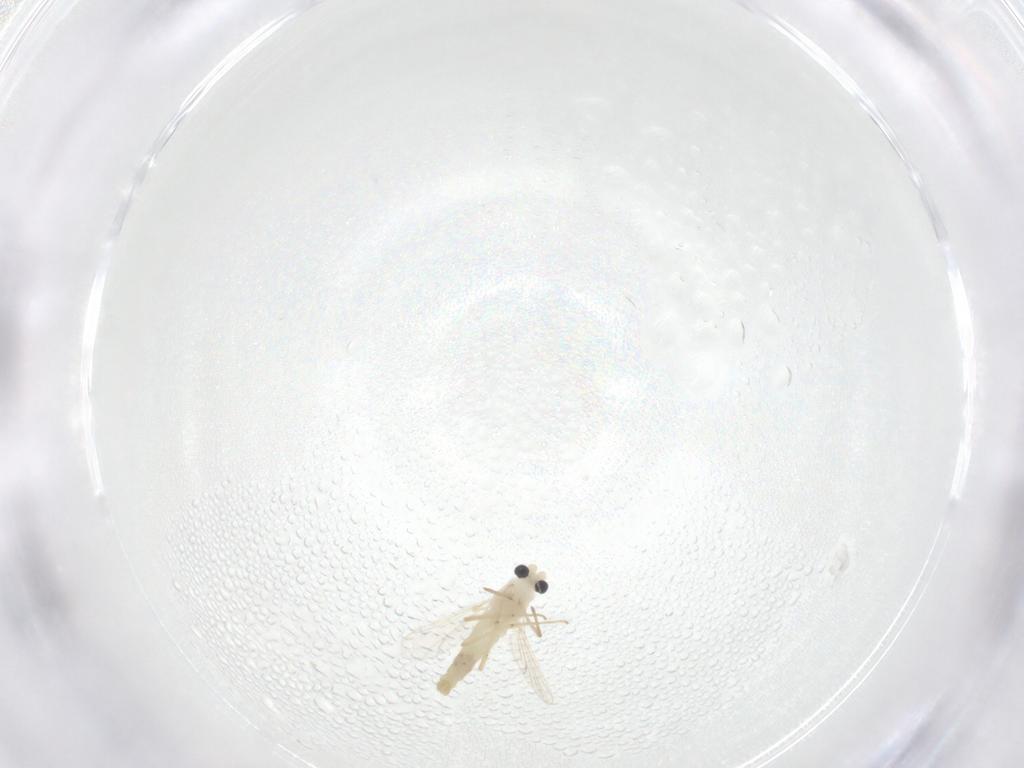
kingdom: Animalia
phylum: Arthropoda
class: Insecta
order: Diptera
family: Chironomidae
